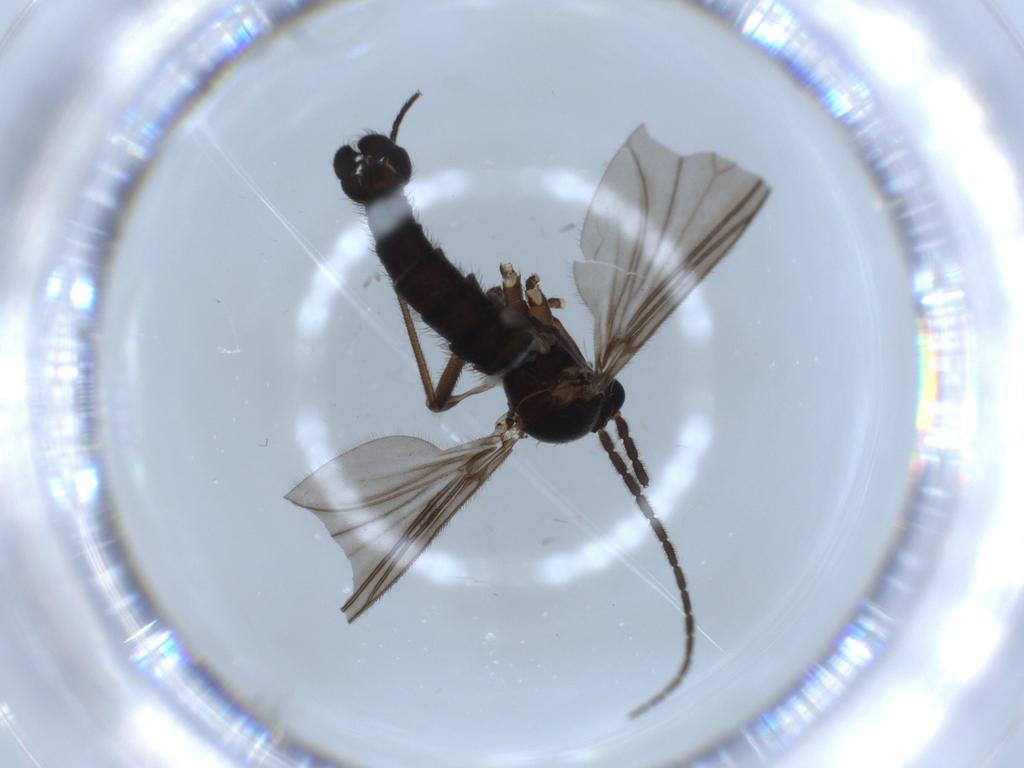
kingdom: Animalia
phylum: Arthropoda
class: Insecta
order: Diptera
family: Sciaridae
